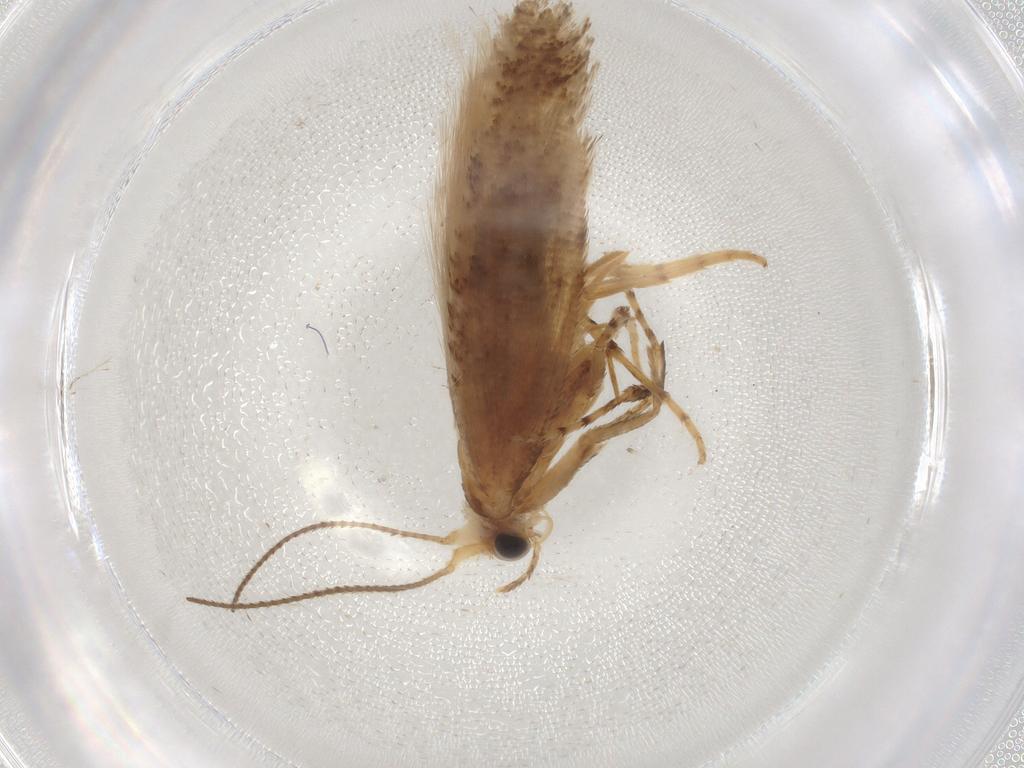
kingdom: Animalia
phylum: Arthropoda
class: Insecta
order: Lepidoptera
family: Argyresthiidae
